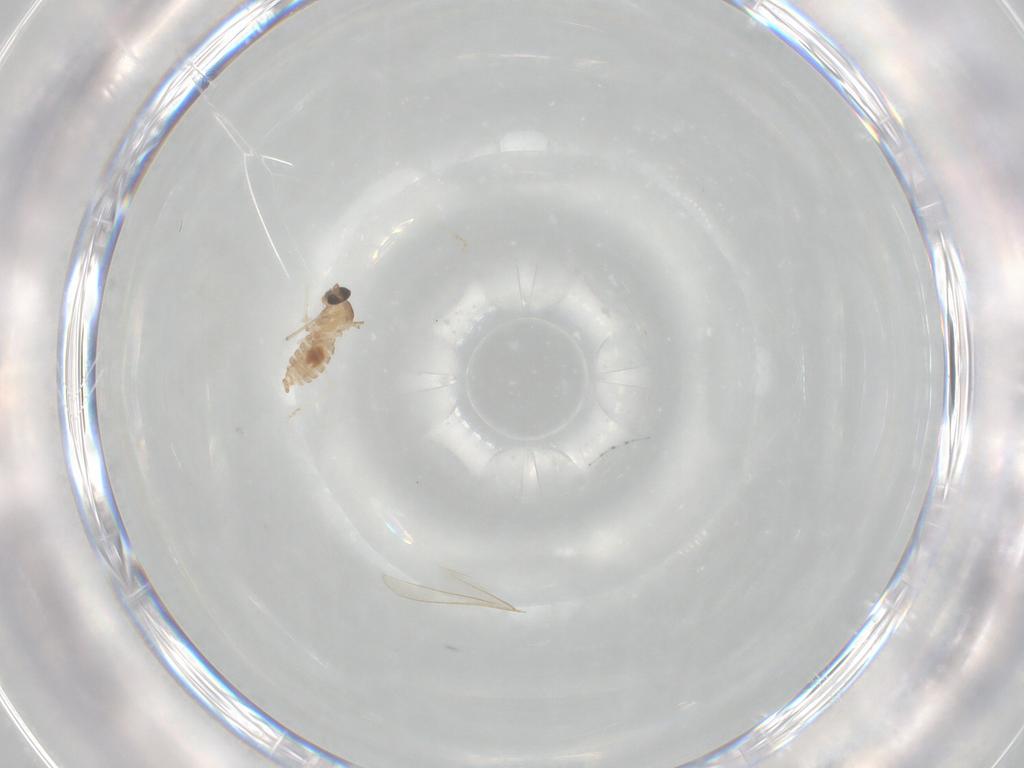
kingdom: Animalia
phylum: Arthropoda
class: Insecta
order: Diptera
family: Cecidomyiidae
